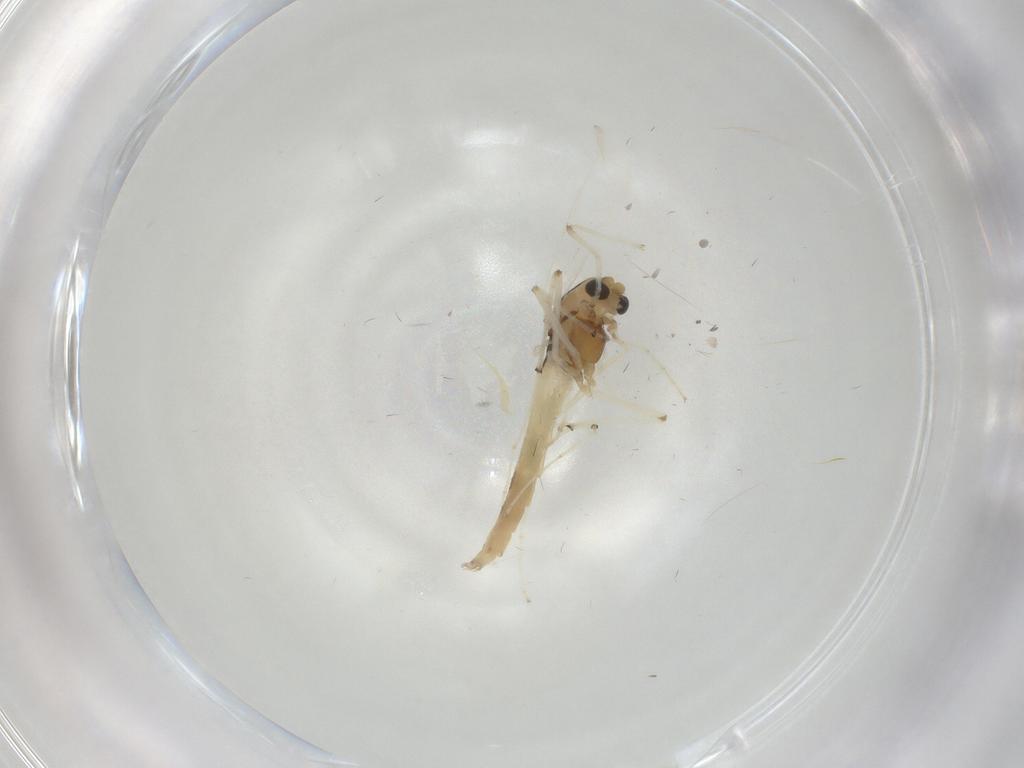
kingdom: Animalia
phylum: Arthropoda
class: Insecta
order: Diptera
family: Chironomidae
